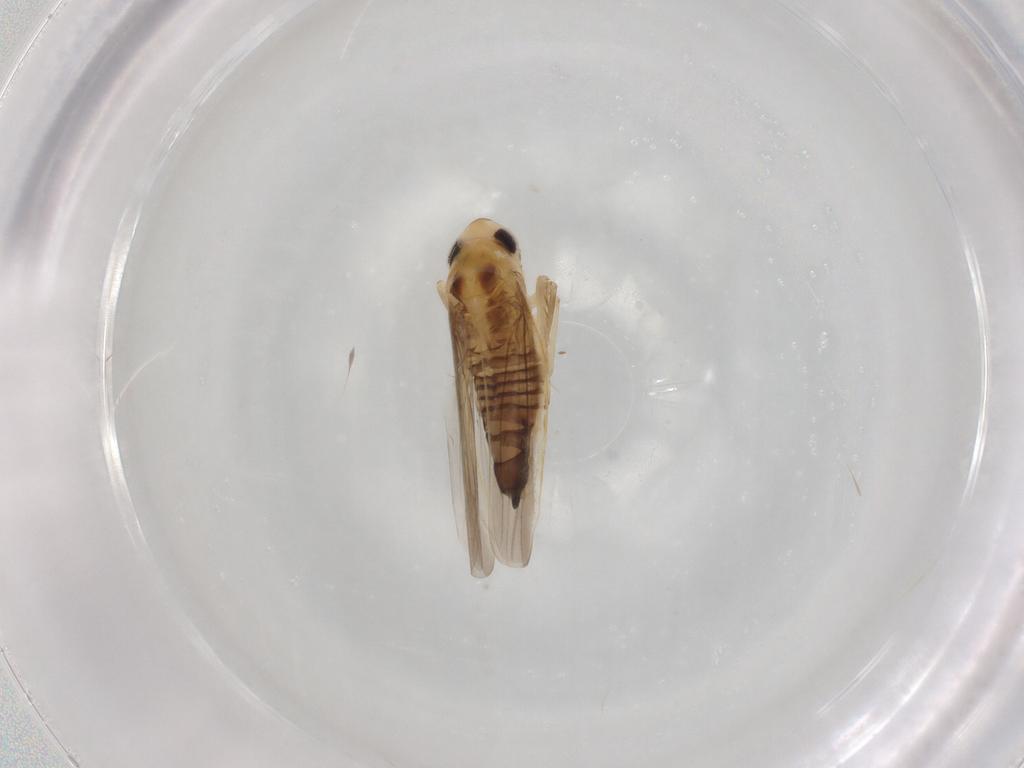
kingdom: Animalia
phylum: Arthropoda
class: Insecta
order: Hemiptera
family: Cicadellidae
